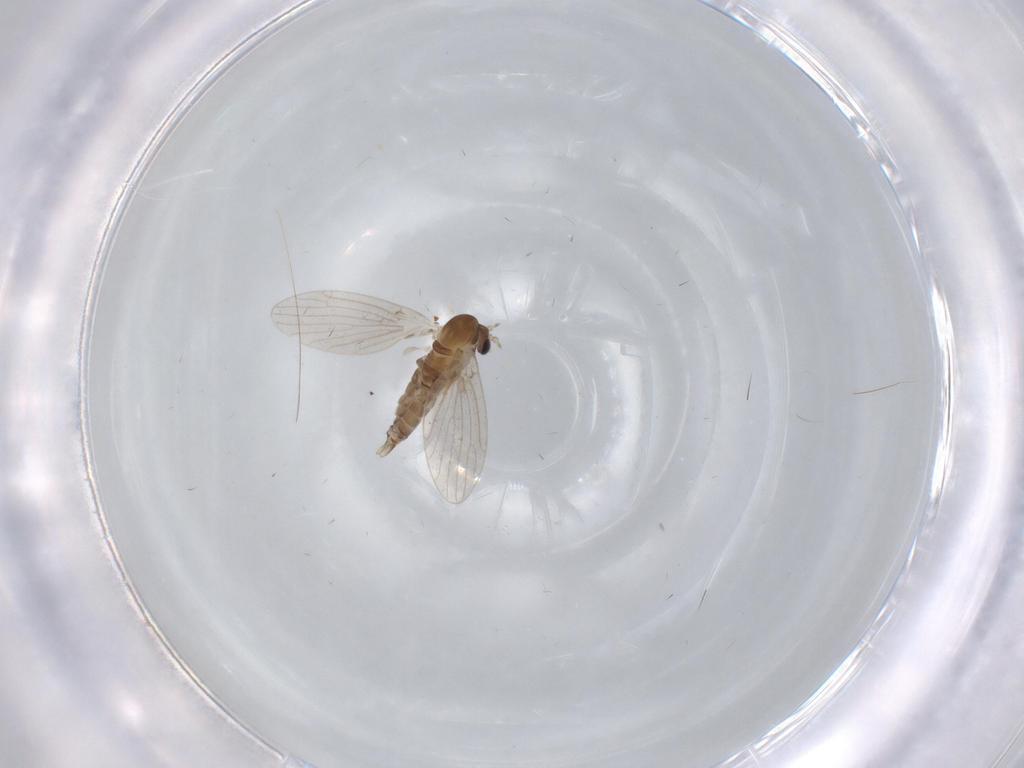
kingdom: Animalia
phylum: Arthropoda
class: Insecta
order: Diptera
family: Psychodidae
